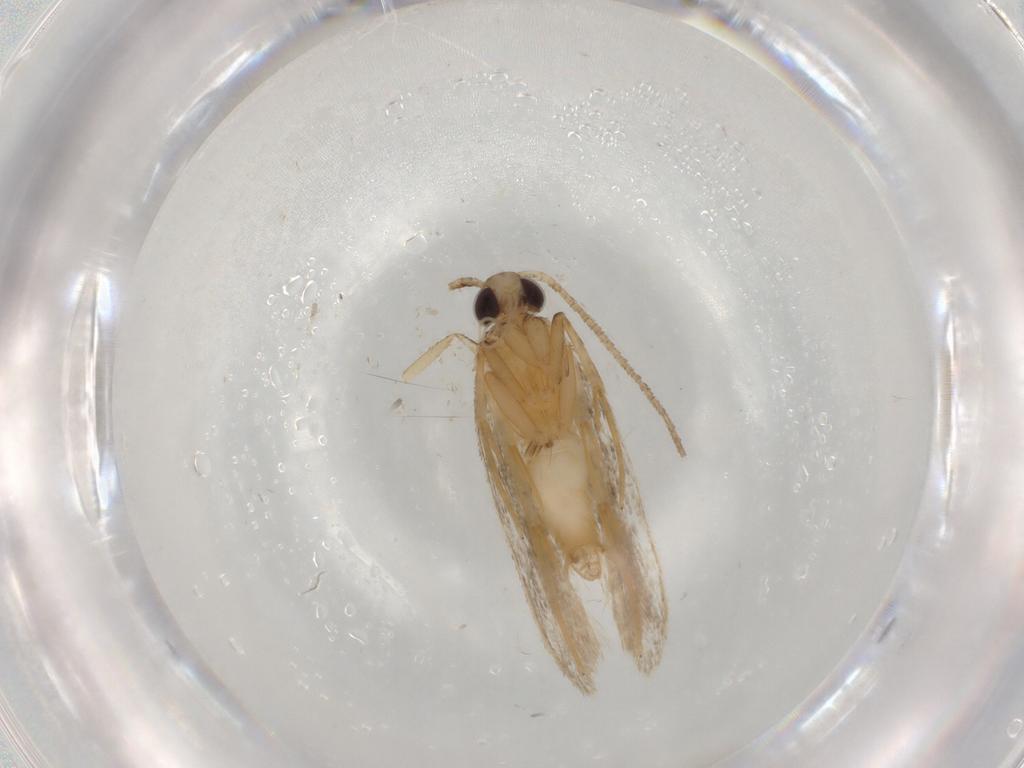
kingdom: Animalia
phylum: Arthropoda
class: Insecta
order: Lepidoptera
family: Autostichidae
